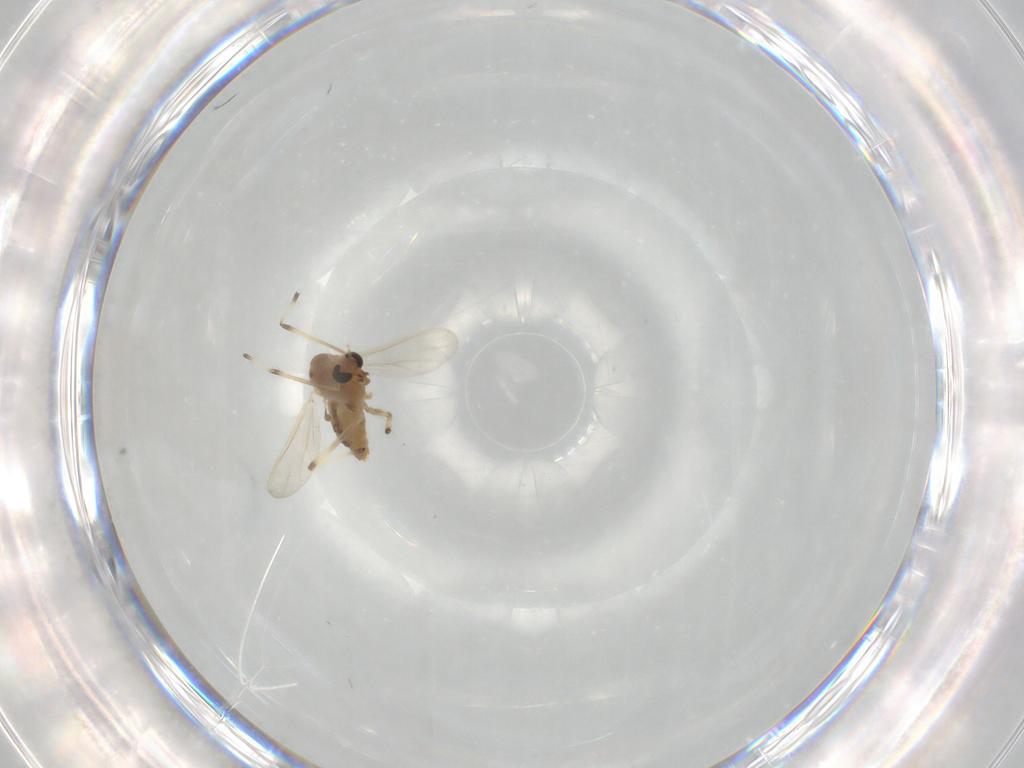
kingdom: Animalia
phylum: Arthropoda
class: Insecta
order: Diptera
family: Chironomidae
